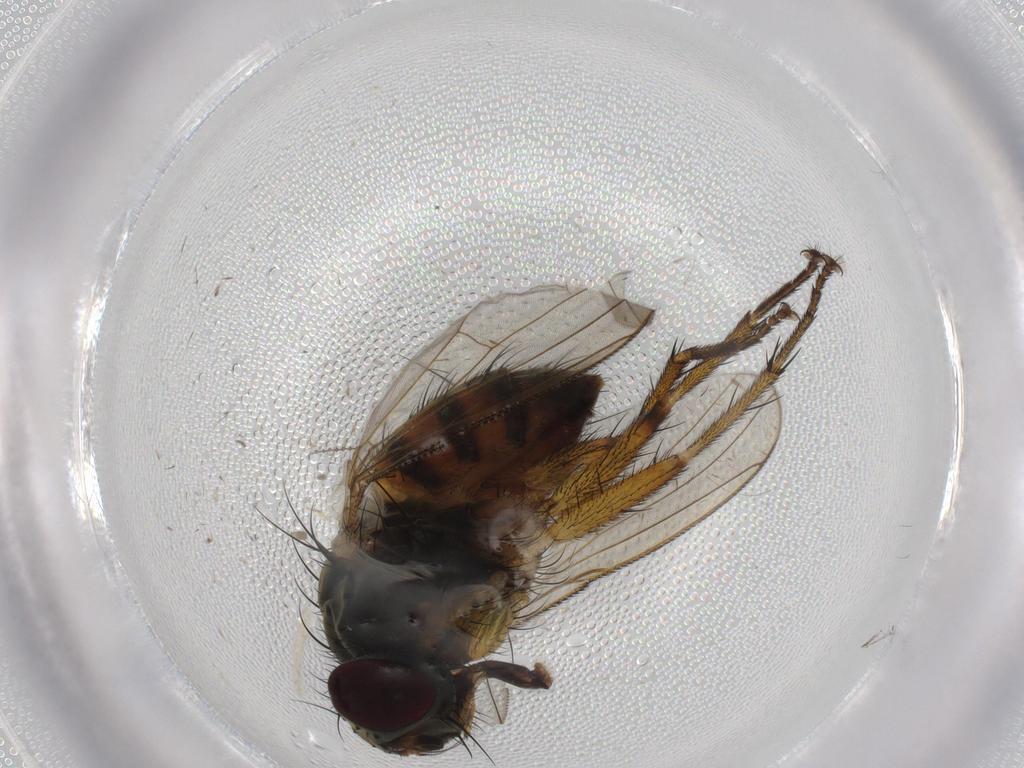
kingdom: Animalia
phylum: Arthropoda
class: Insecta
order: Diptera
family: Muscidae
